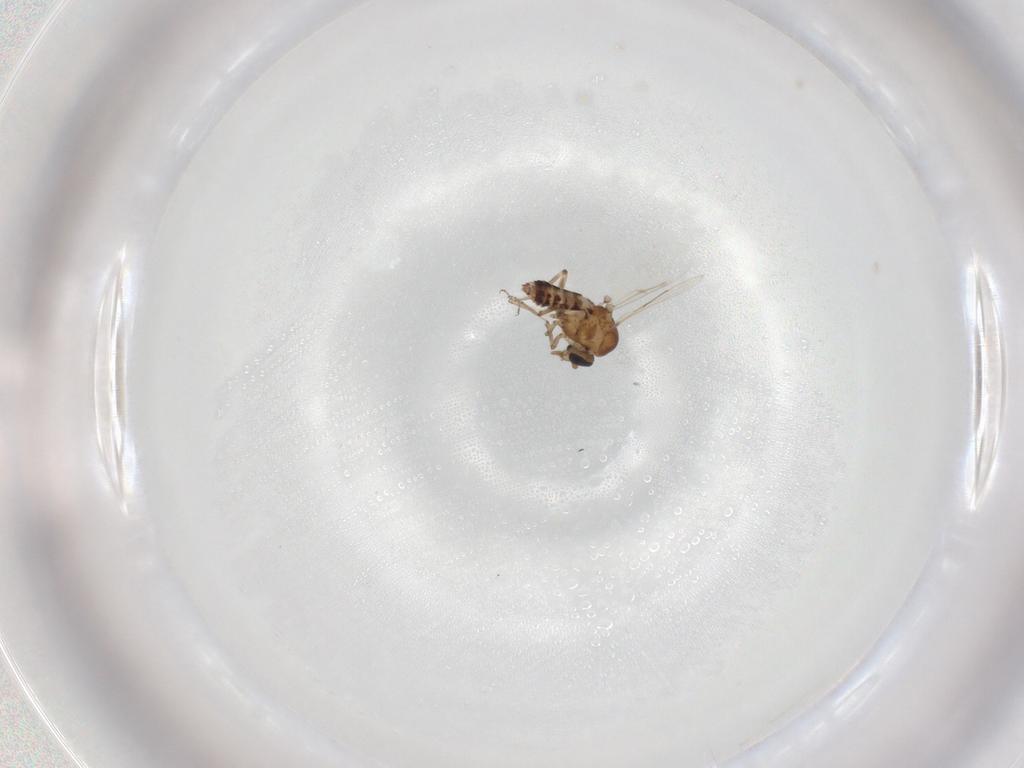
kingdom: Animalia
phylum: Arthropoda
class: Insecta
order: Diptera
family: Ceratopogonidae
